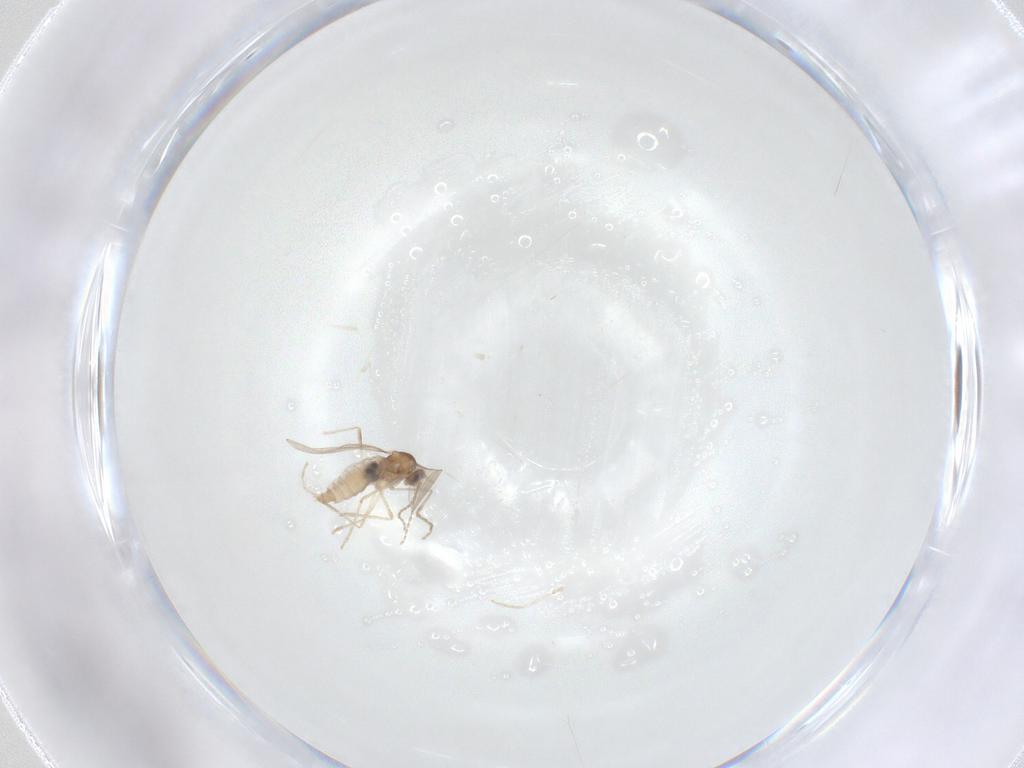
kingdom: Animalia
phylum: Arthropoda
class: Insecta
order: Diptera
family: Cecidomyiidae
